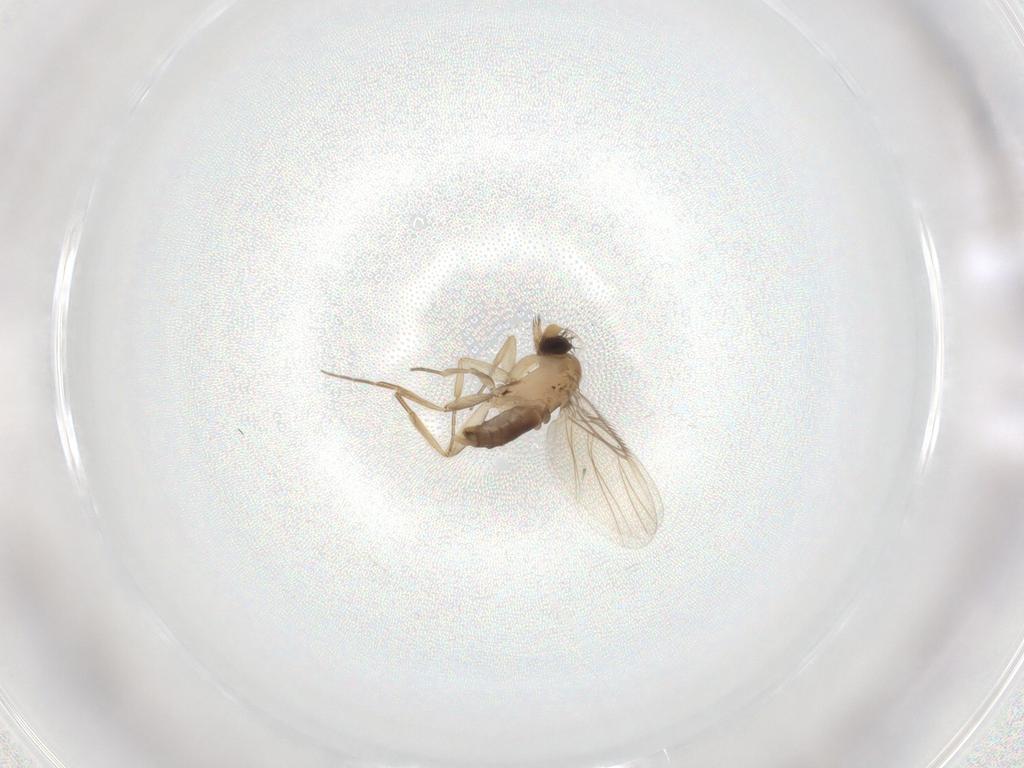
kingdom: Animalia
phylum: Arthropoda
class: Insecta
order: Diptera
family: Phoridae
